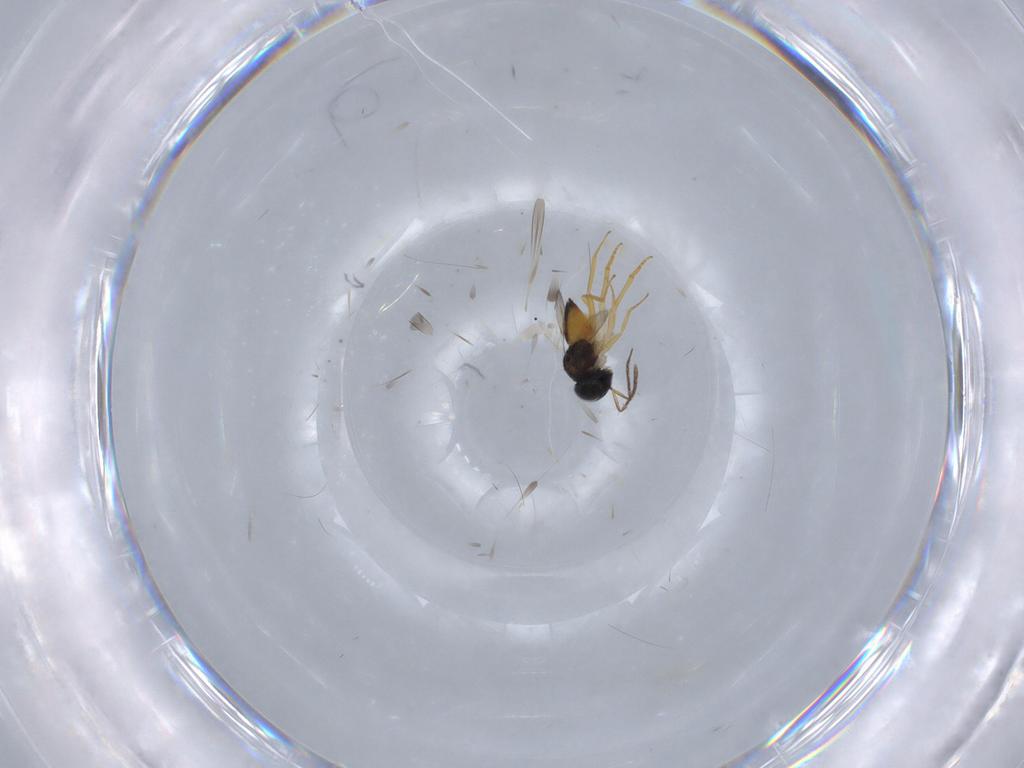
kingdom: Animalia
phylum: Arthropoda
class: Insecta
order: Hymenoptera
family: Encyrtidae
